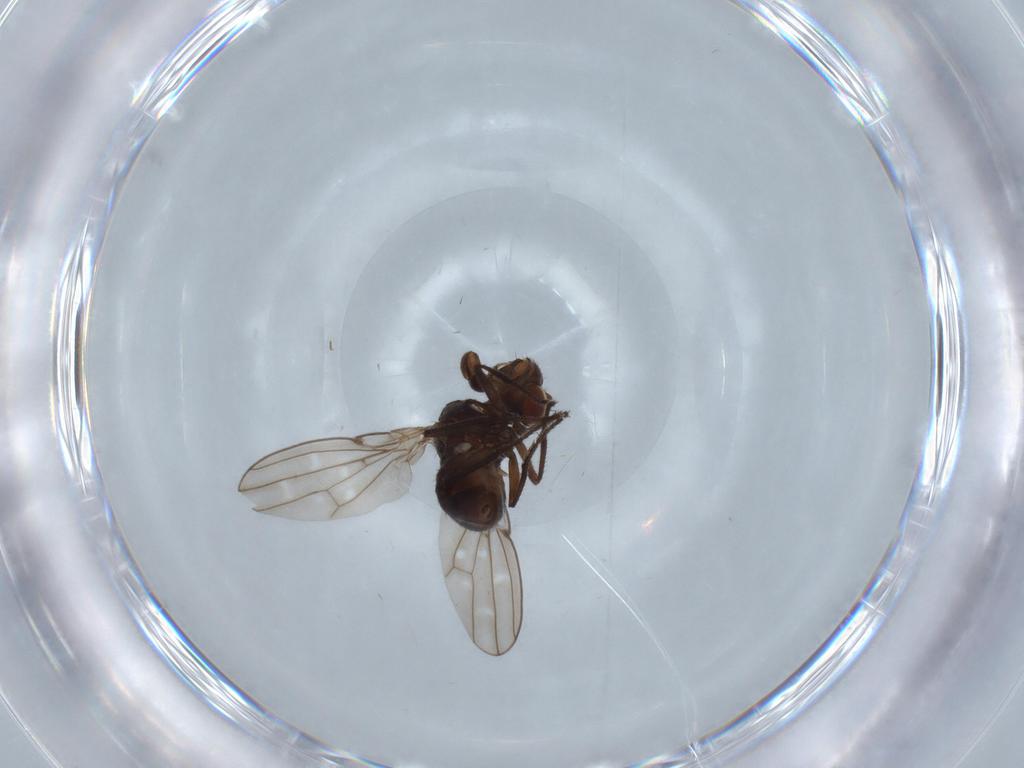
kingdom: Animalia
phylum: Arthropoda
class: Insecta
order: Diptera
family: Ephydridae
